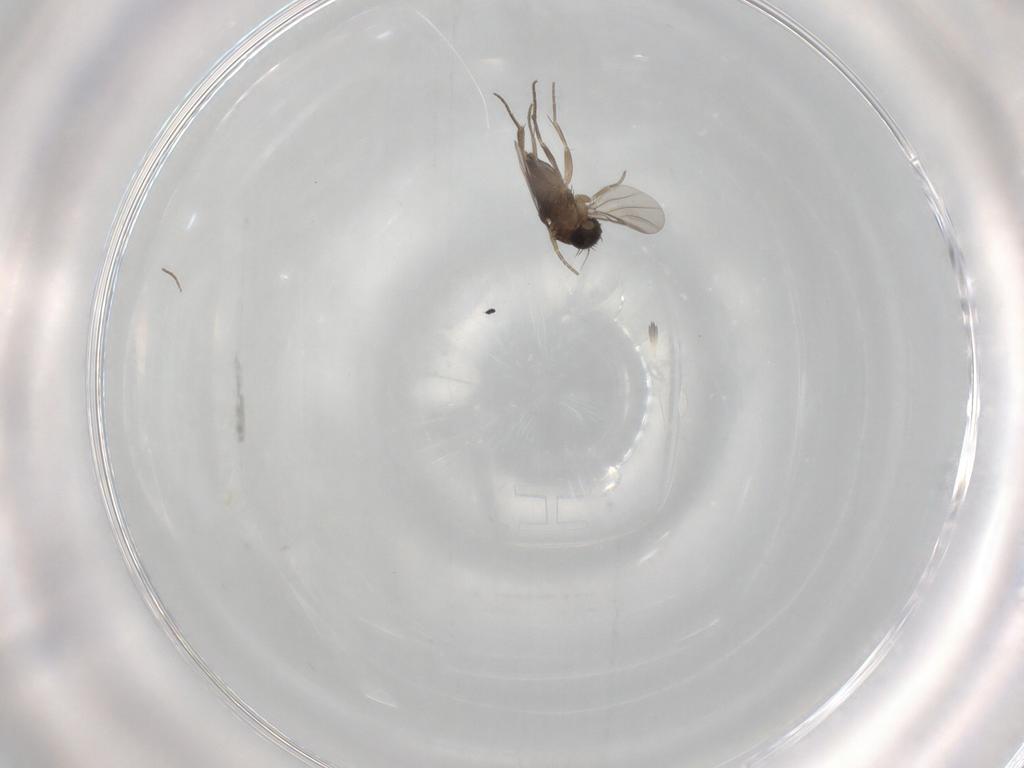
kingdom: Animalia
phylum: Arthropoda
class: Insecta
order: Diptera
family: Phoridae
